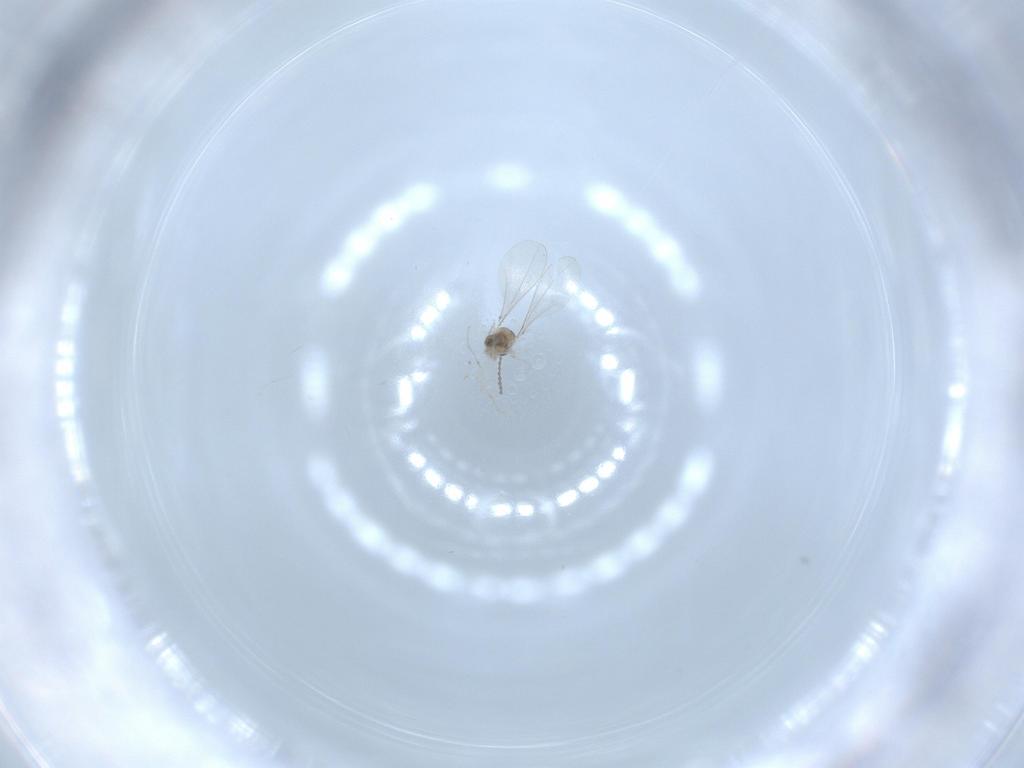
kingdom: Animalia
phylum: Arthropoda
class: Insecta
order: Diptera
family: Cecidomyiidae
